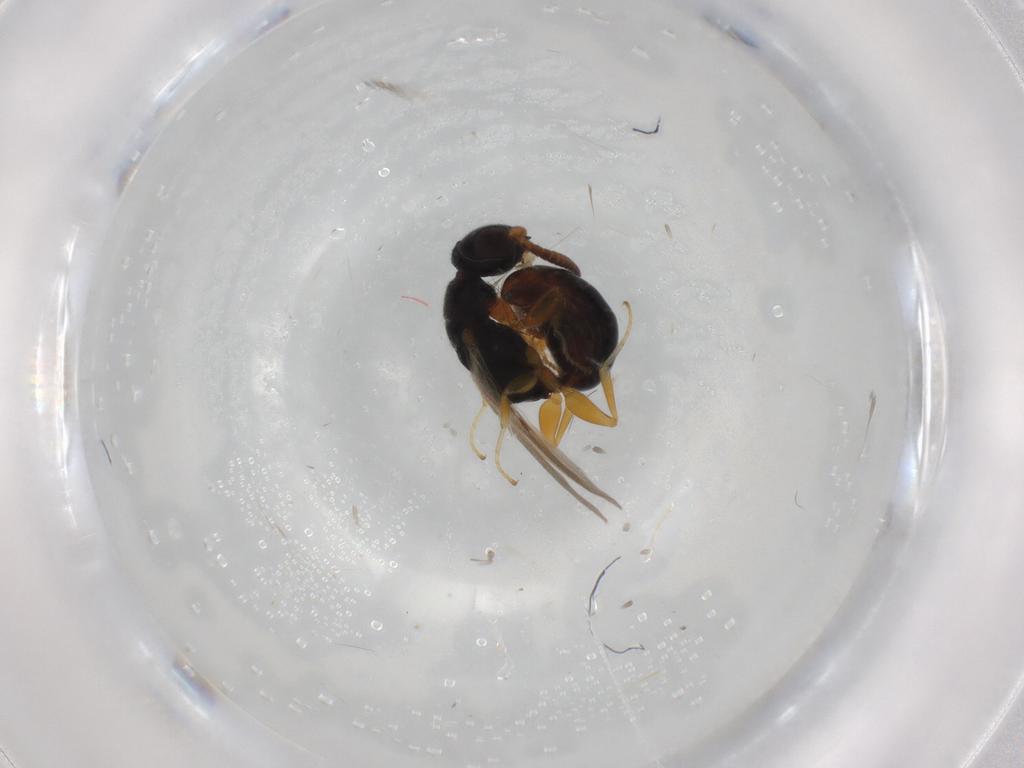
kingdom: Animalia
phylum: Arthropoda
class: Insecta
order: Hymenoptera
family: Bethylidae
